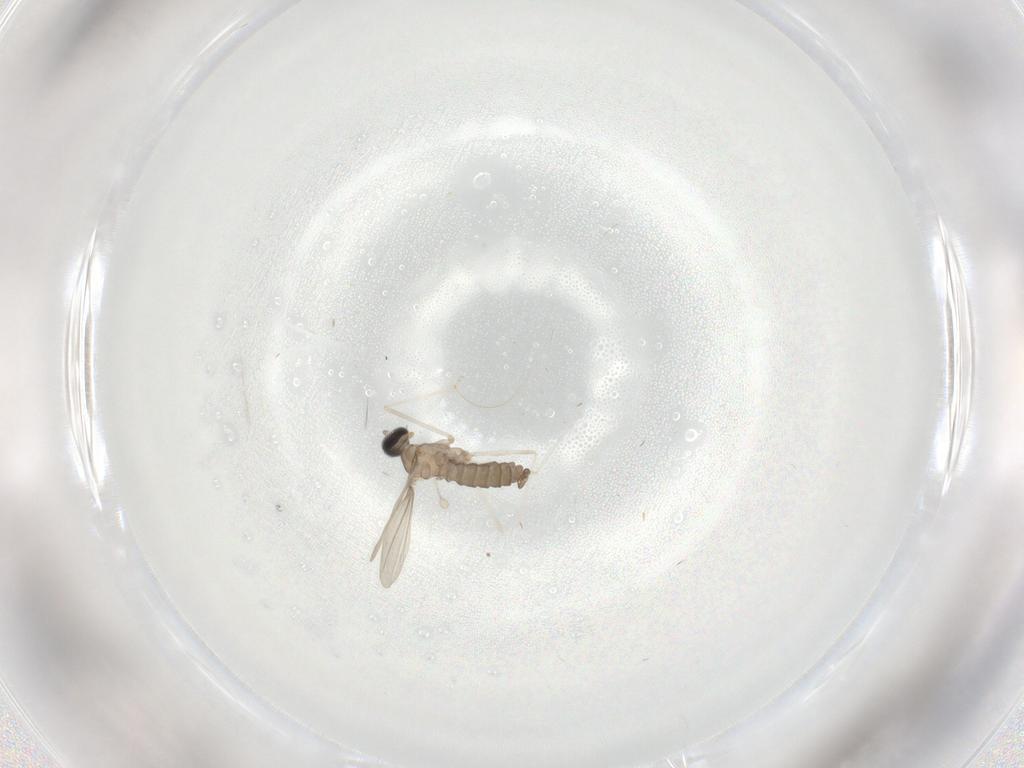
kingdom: Animalia
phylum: Arthropoda
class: Insecta
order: Diptera
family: Cecidomyiidae
